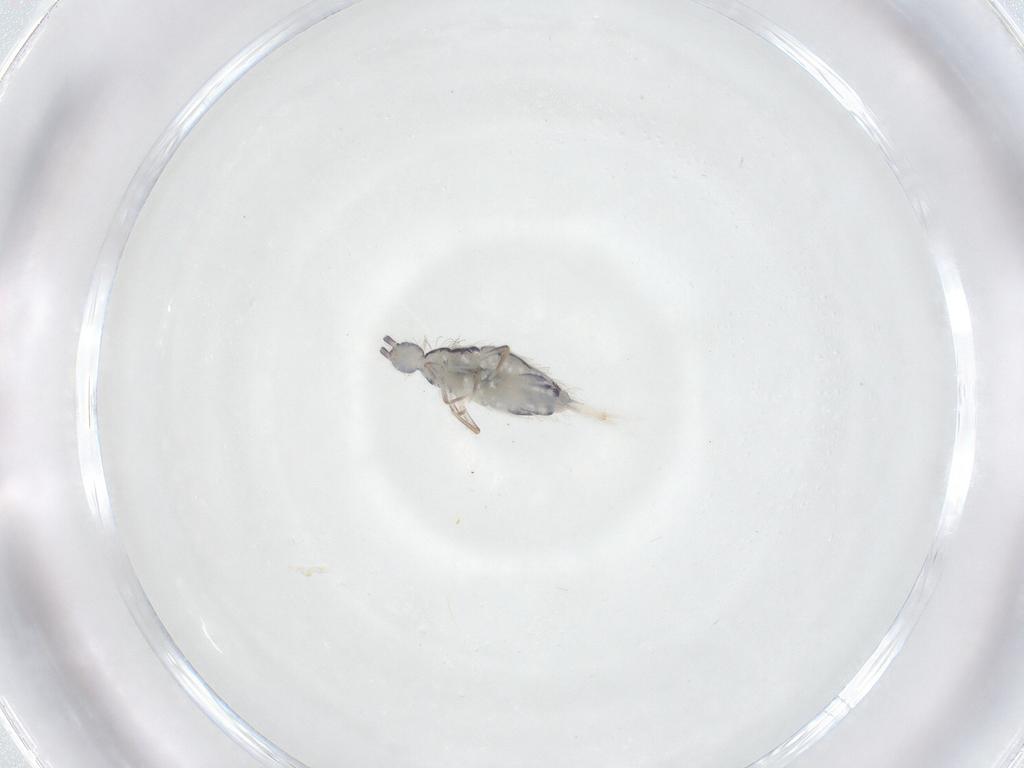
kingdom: Animalia
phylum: Arthropoda
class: Collembola
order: Entomobryomorpha
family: Entomobryidae
